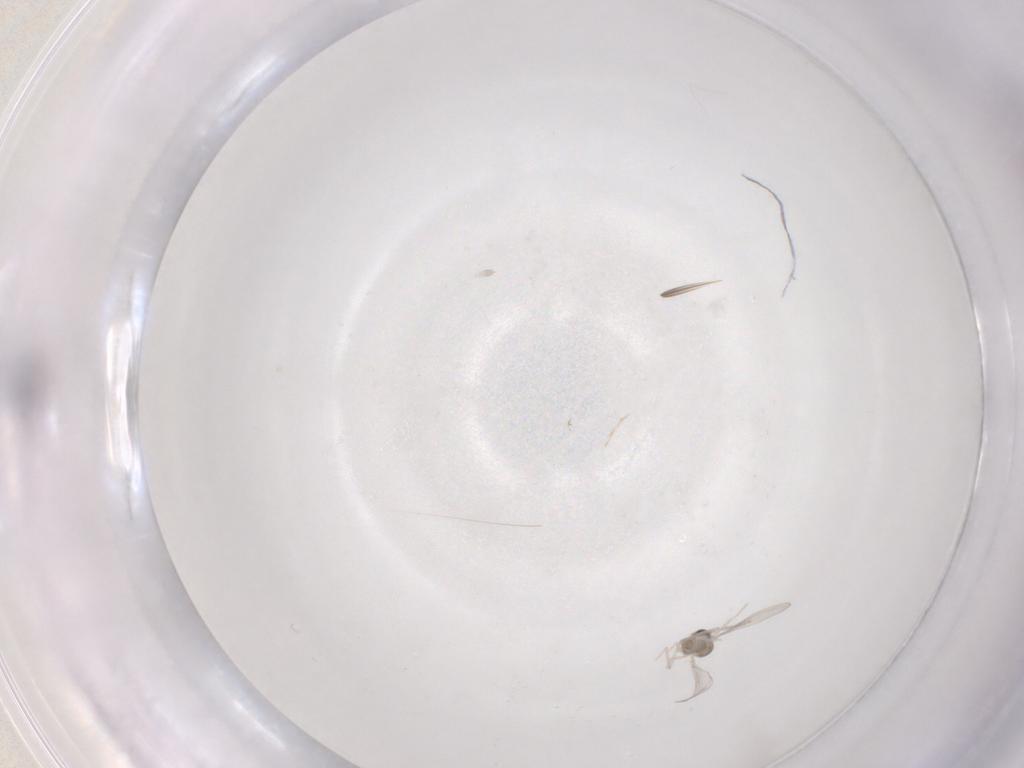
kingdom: Animalia
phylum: Arthropoda
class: Insecta
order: Diptera
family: Cecidomyiidae
